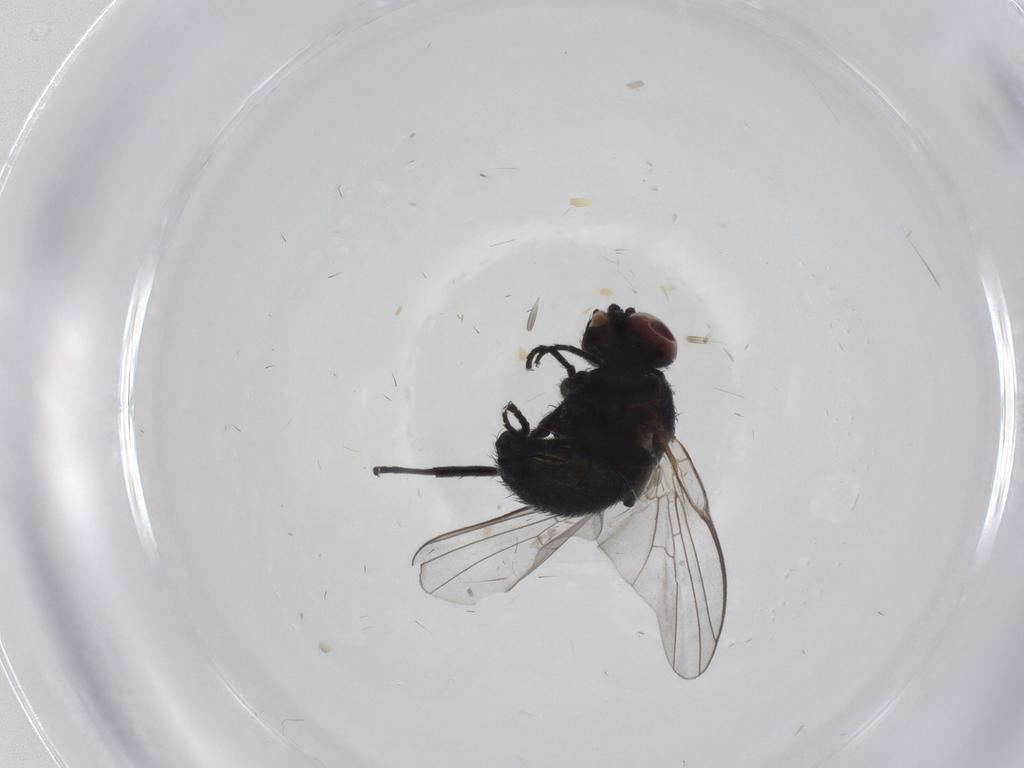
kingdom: Animalia
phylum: Arthropoda
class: Insecta
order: Diptera
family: Agromyzidae
